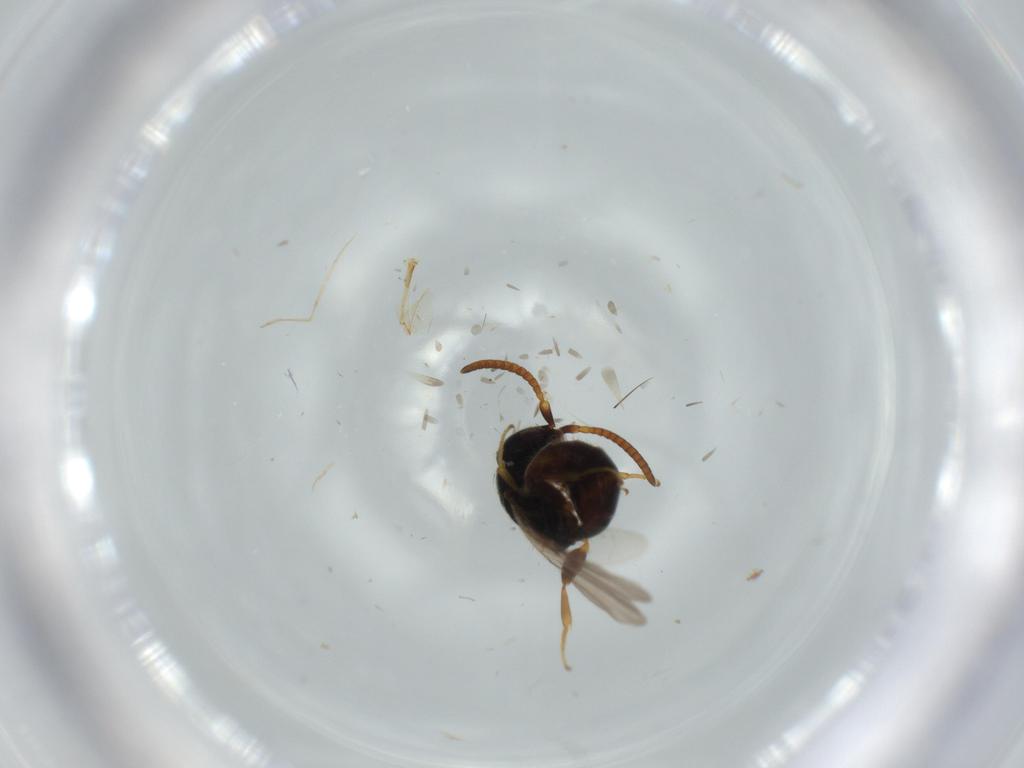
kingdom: Animalia
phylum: Arthropoda
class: Insecta
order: Hymenoptera
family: Bethylidae
